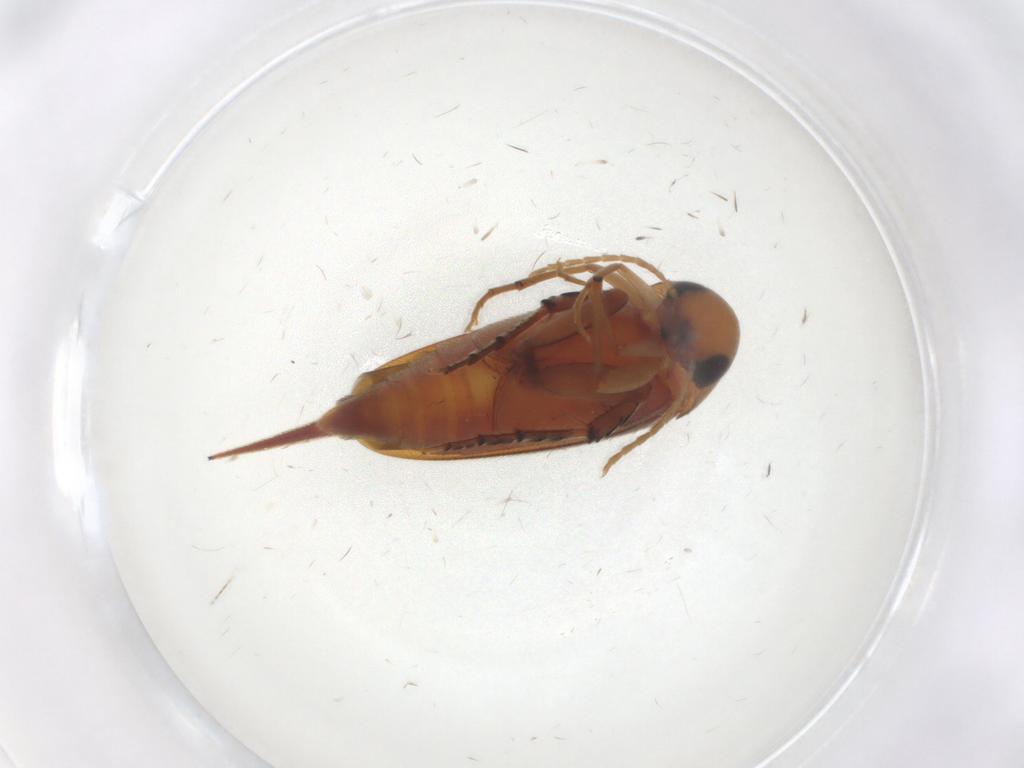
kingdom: Animalia
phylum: Arthropoda
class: Insecta
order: Coleoptera
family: Mordellidae
